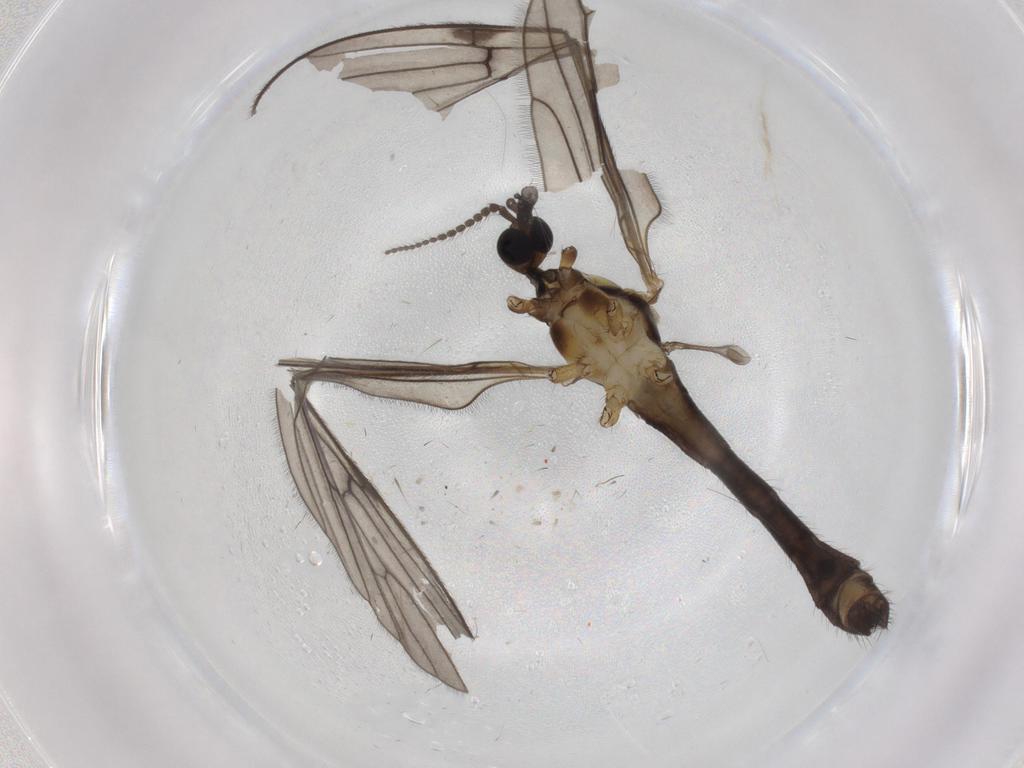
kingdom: Animalia
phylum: Arthropoda
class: Insecta
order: Diptera
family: Limoniidae
